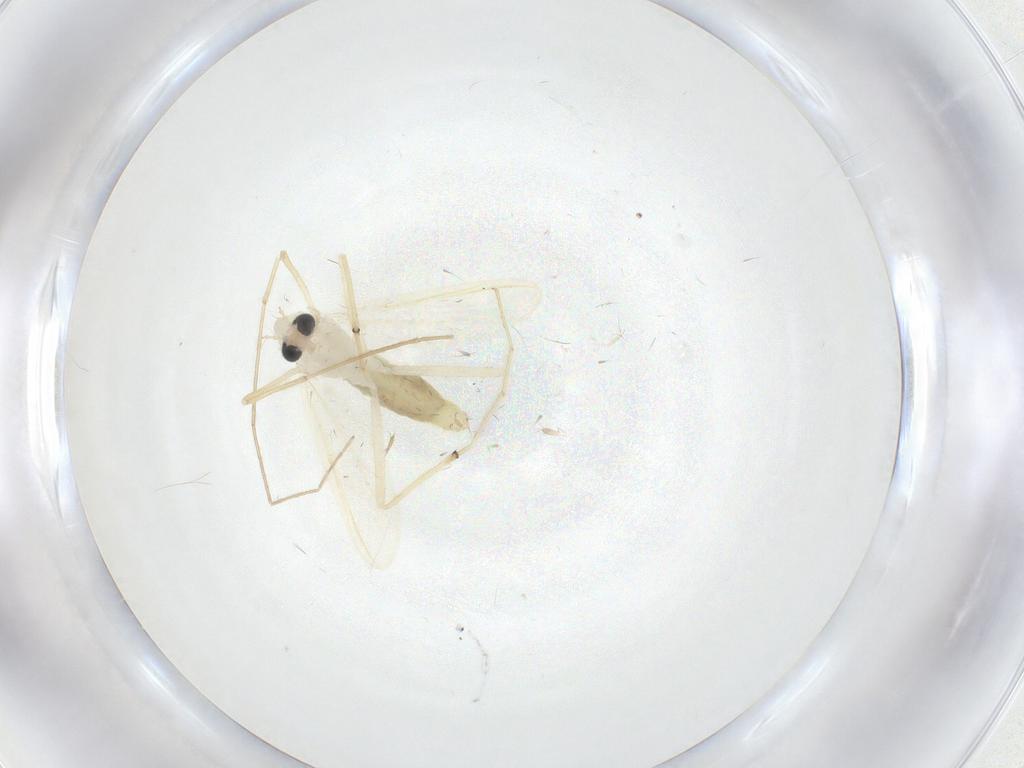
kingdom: Animalia
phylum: Arthropoda
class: Insecta
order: Diptera
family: Chironomidae
